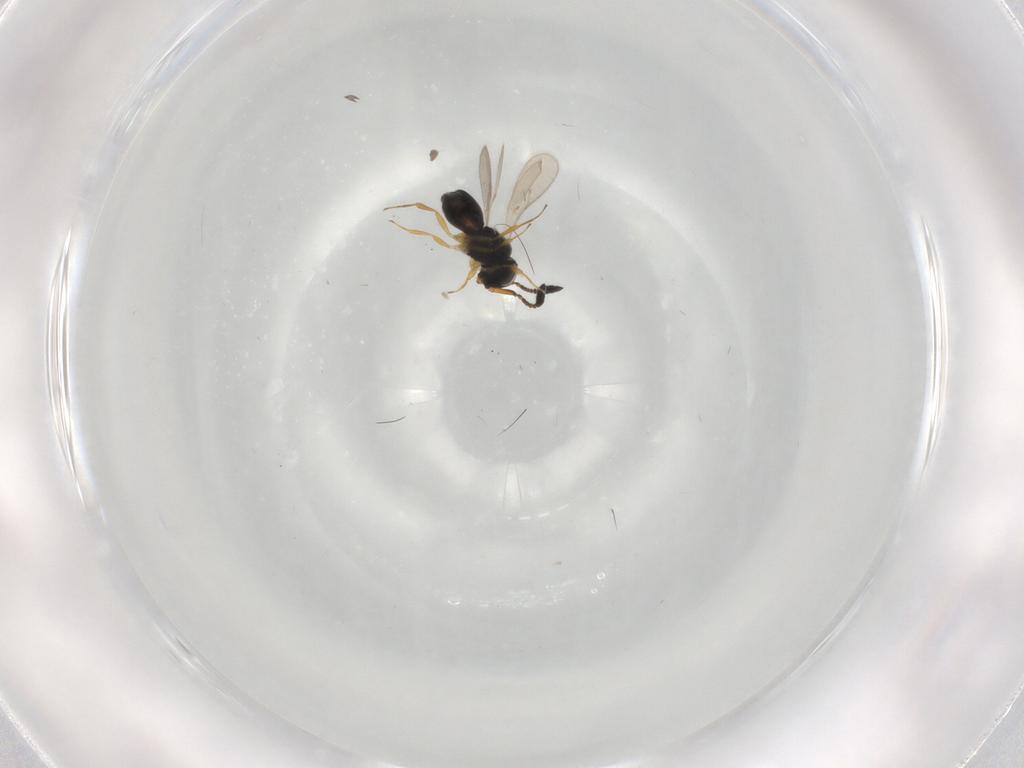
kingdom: Animalia
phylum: Arthropoda
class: Insecta
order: Hymenoptera
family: Scelionidae
